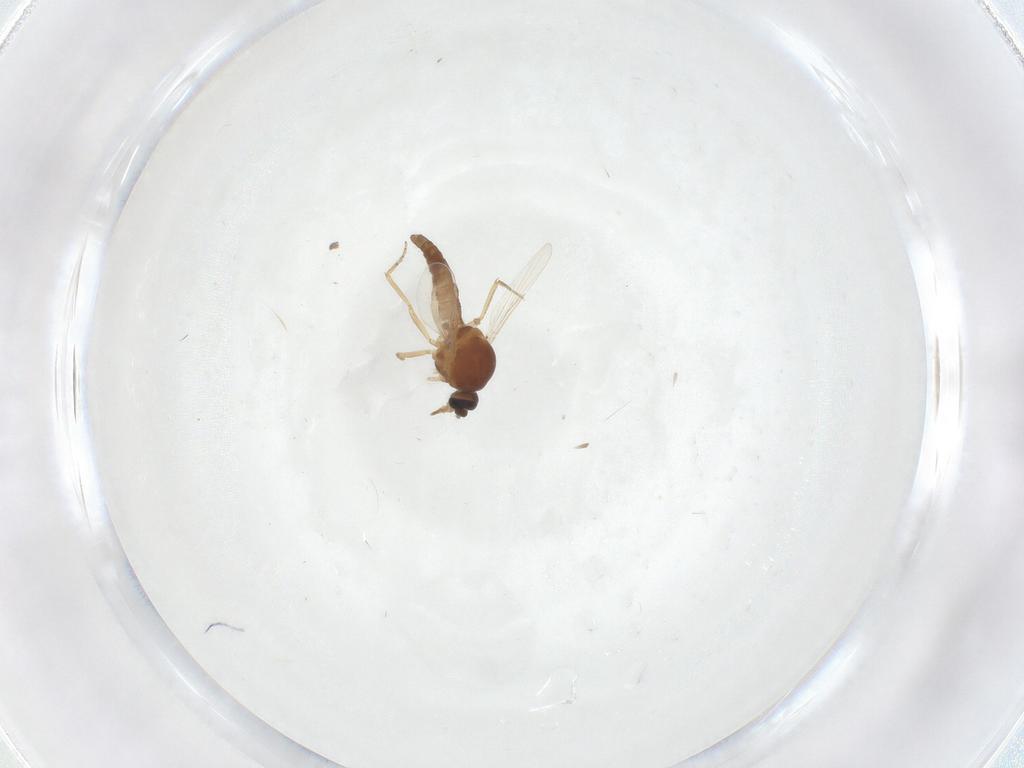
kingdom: Animalia
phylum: Arthropoda
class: Insecta
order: Diptera
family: Ceratopogonidae
